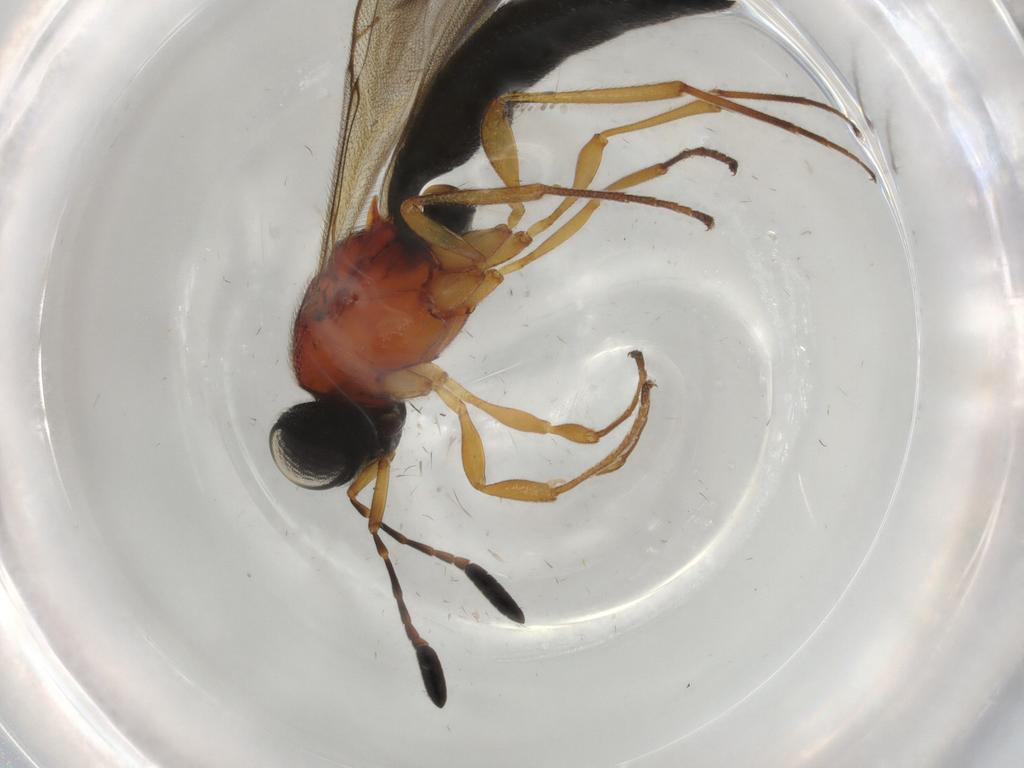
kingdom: Animalia
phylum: Arthropoda
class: Insecta
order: Hymenoptera
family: Scelionidae
